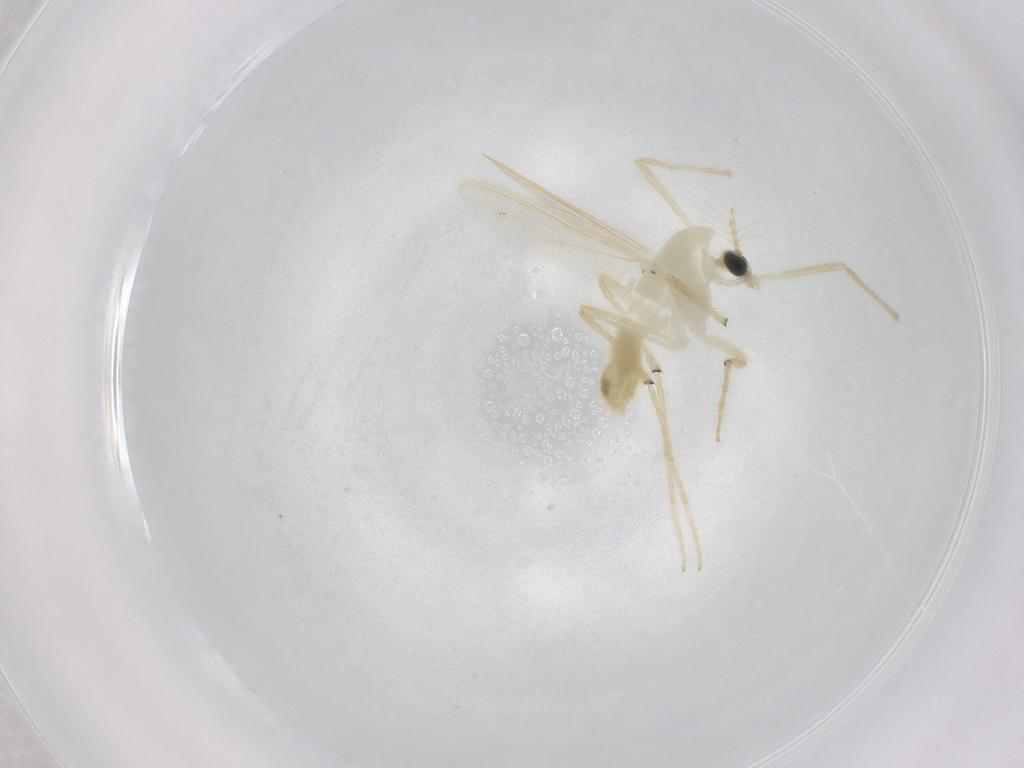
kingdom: Animalia
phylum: Arthropoda
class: Insecta
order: Diptera
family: Chironomidae
